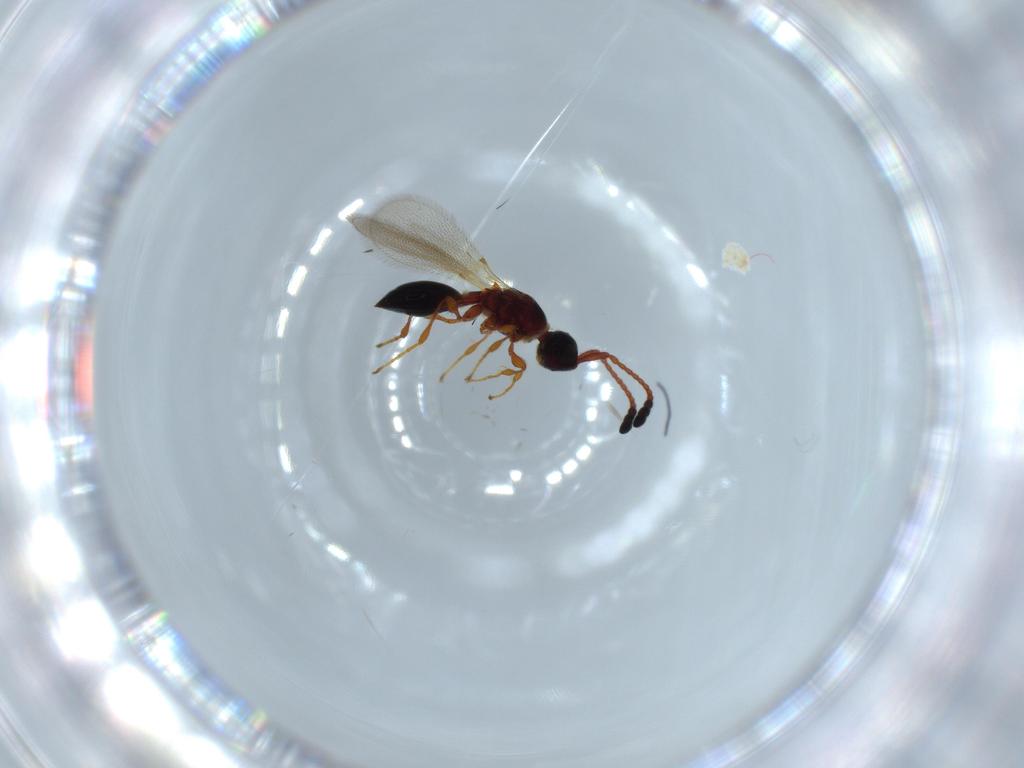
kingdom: Animalia
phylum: Arthropoda
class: Insecta
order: Hymenoptera
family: Diapriidae
